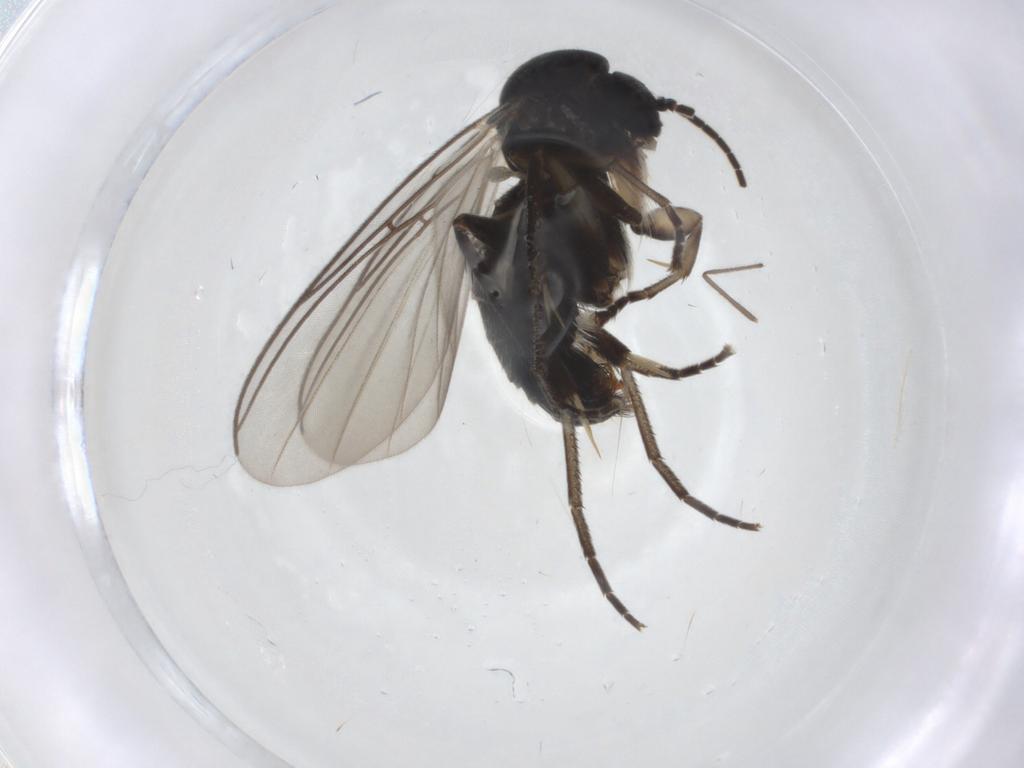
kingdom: Animalia
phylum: Arthropoda
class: Insecta
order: Diptera
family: Mycetophilidae
